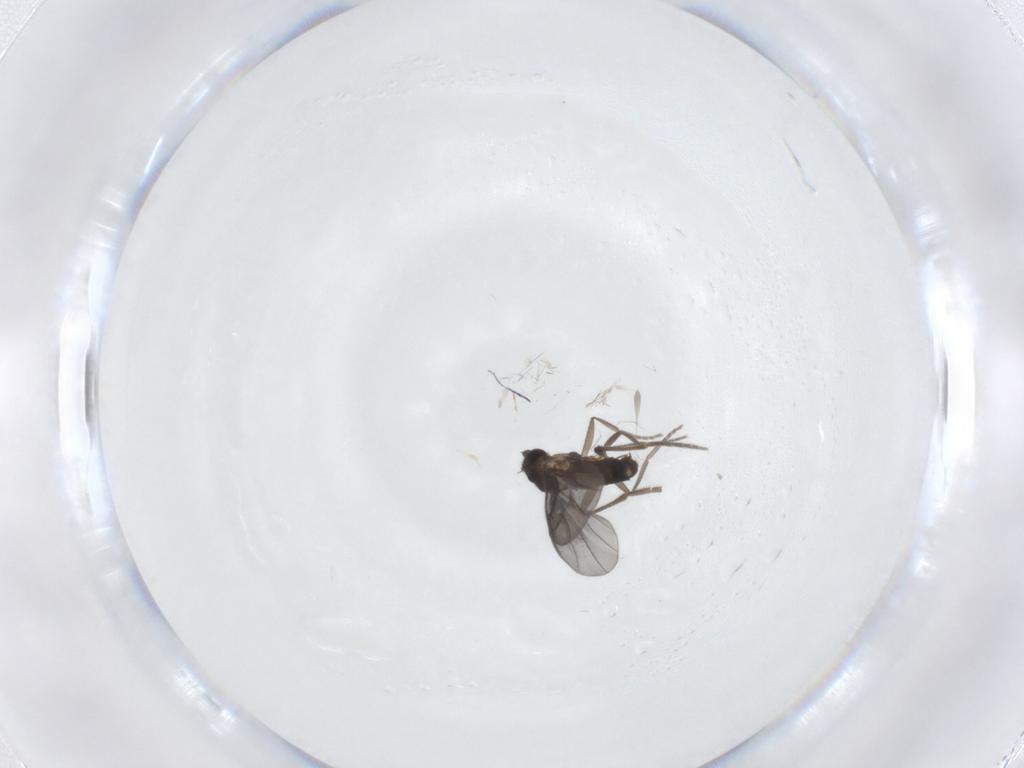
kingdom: Animalia
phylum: Arthropoda
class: Insecta
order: Diptera
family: Phoridae
